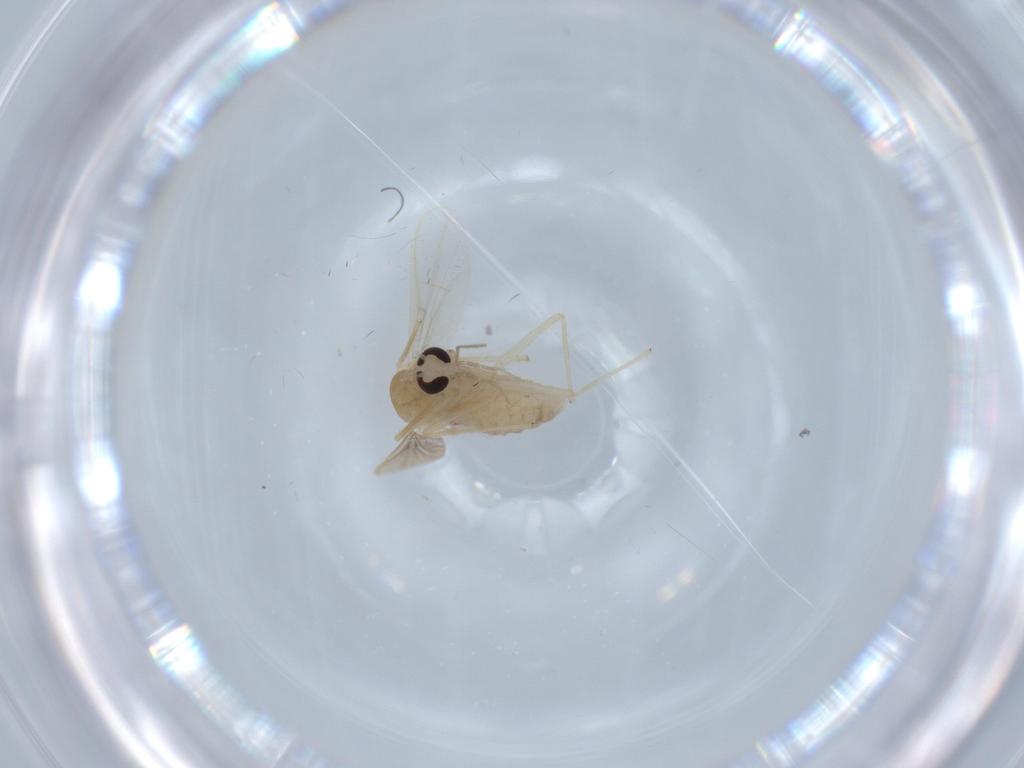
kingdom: Animalia
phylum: Arthropoda
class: Insecta
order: Diptera
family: Chironomidae
